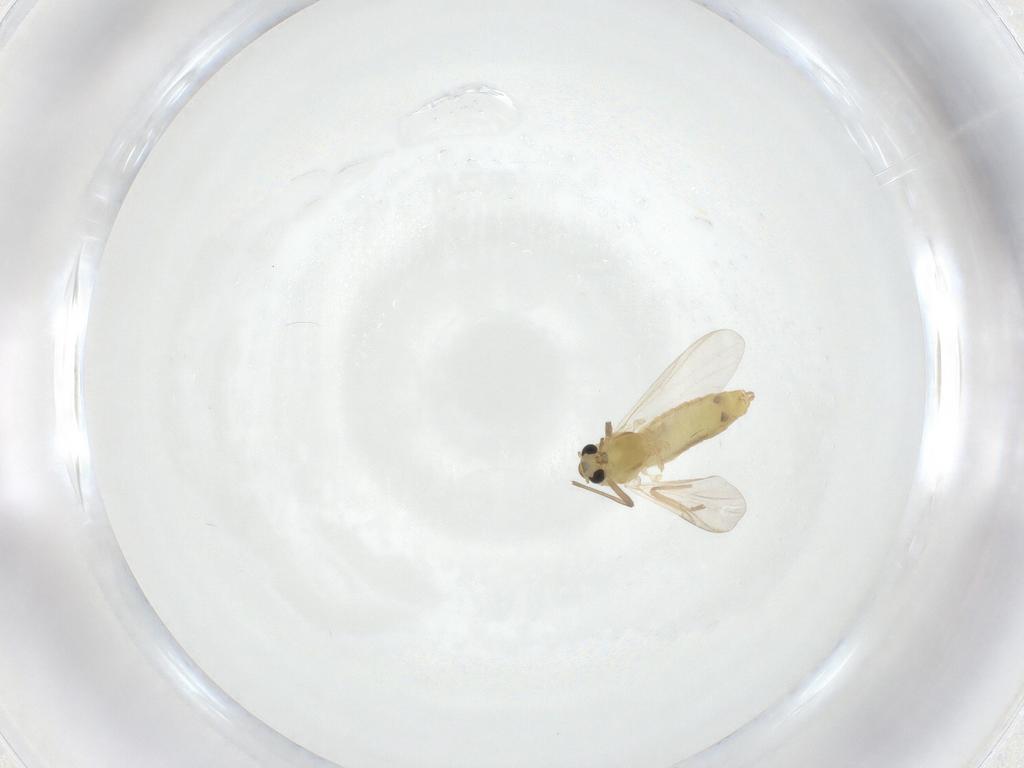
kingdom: Animalia
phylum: Arthropoda
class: Insecta
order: Diptera
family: Chironomidae
